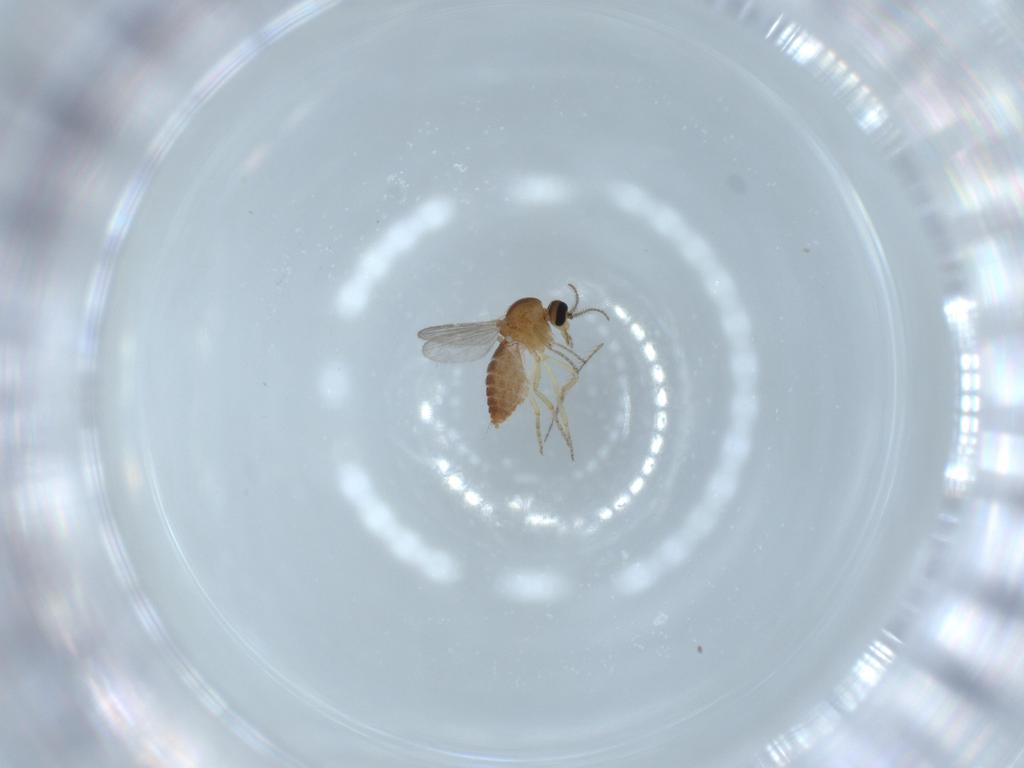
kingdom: Animalia
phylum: Arthropoda
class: Insecta
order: Diptera
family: Ceratopogonidae
